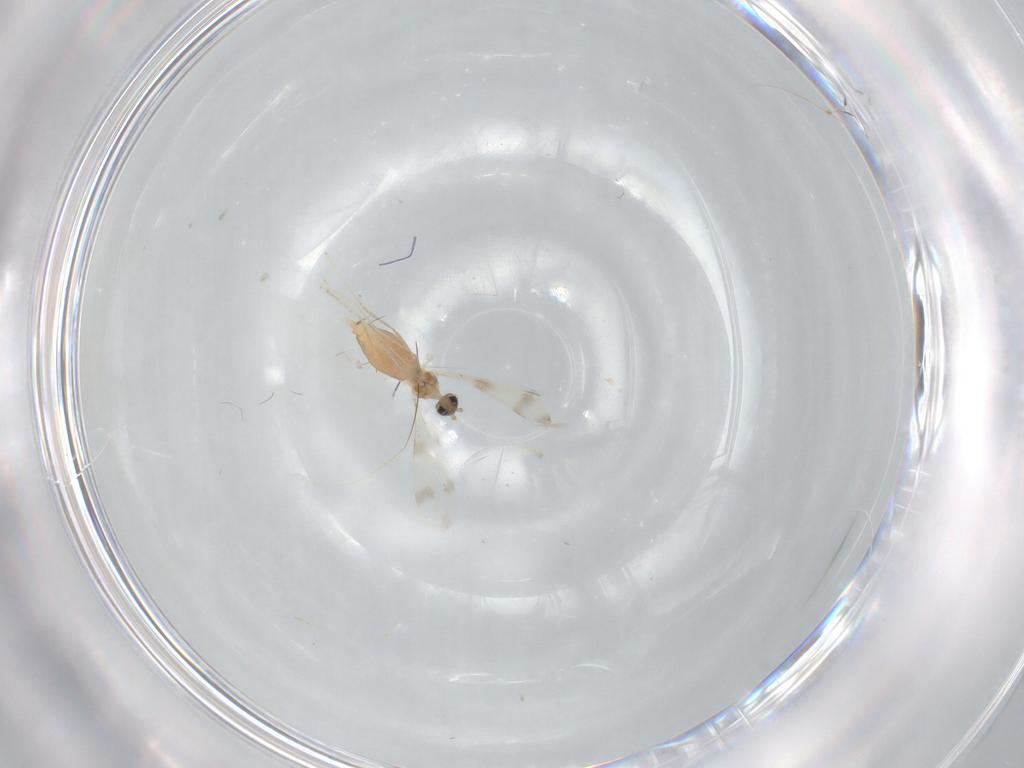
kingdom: Animalia
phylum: Arthropoda
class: Insecta
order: Diptera
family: Cecidomyiidae
